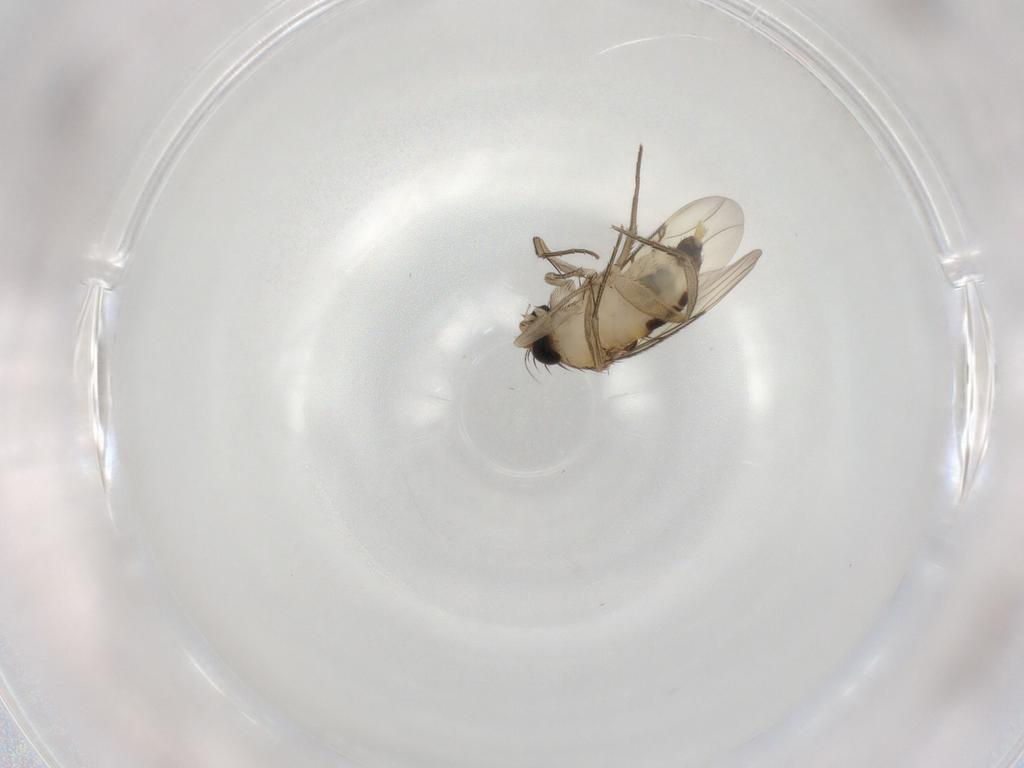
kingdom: Animalia
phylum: Arthropoda
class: Insecta
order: Diptera
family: Phoridae
